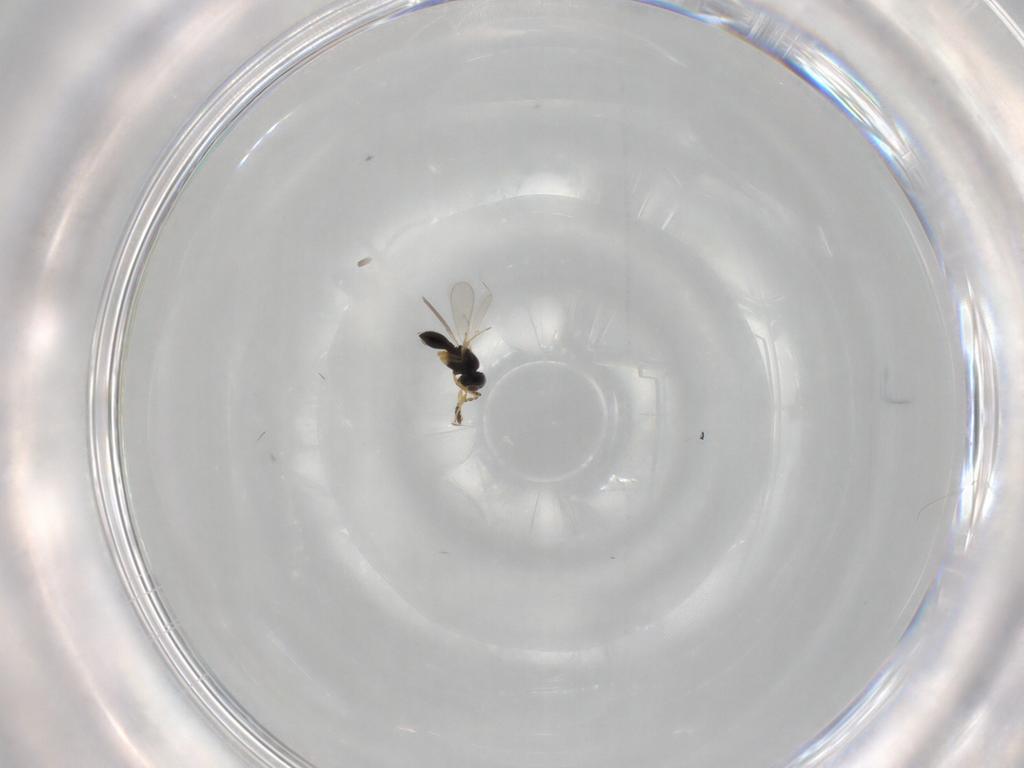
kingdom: Animalia
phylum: Arthropoda
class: Insecta
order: Hymenoptera
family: Scelionidae
